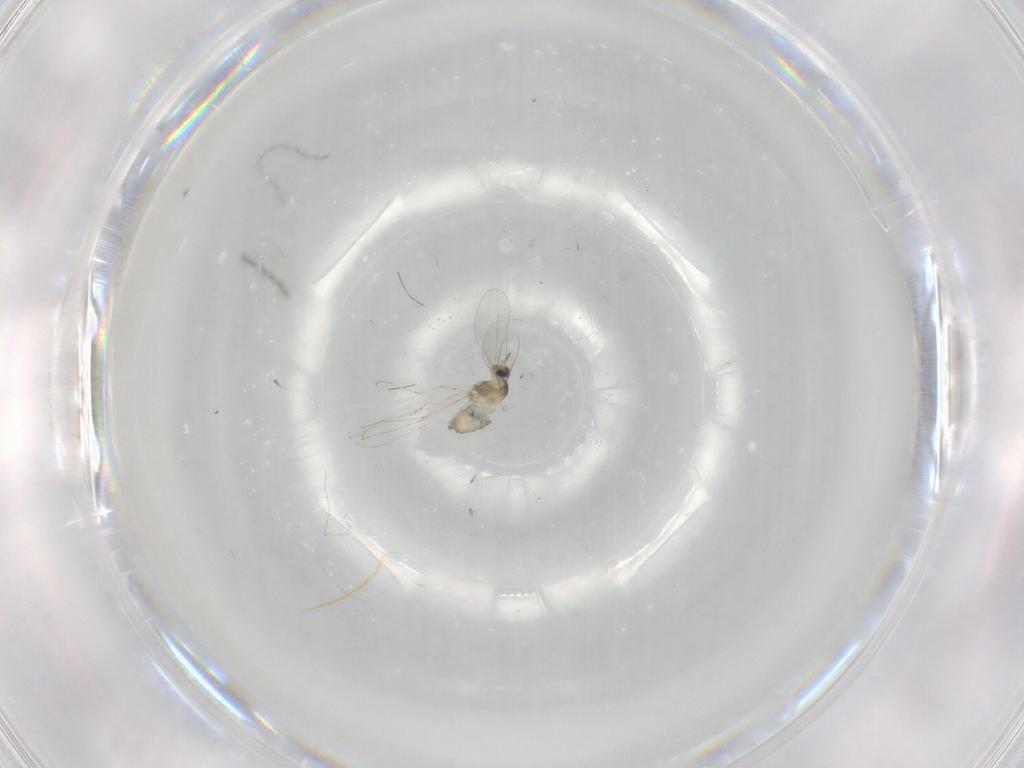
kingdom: Animalia
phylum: Arthropoda
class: Insecta
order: Diptera
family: Cecidomyiidae
